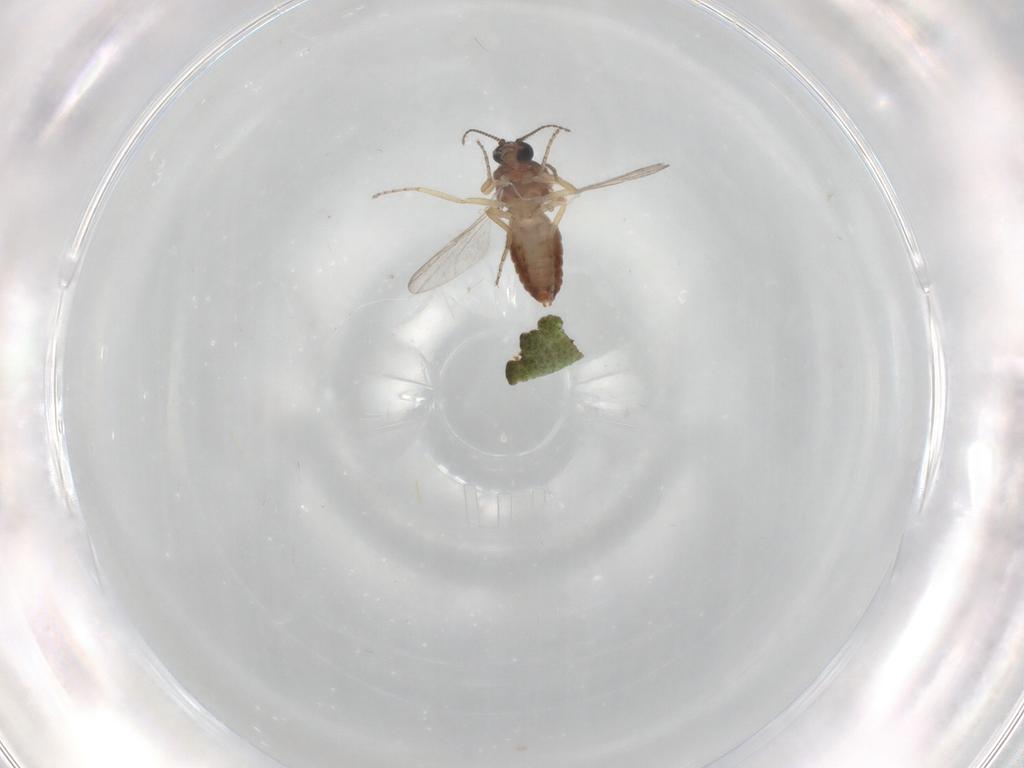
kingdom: Animalia
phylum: Arthropoda
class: Insecta
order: Diptera
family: Ceratopogonidae
